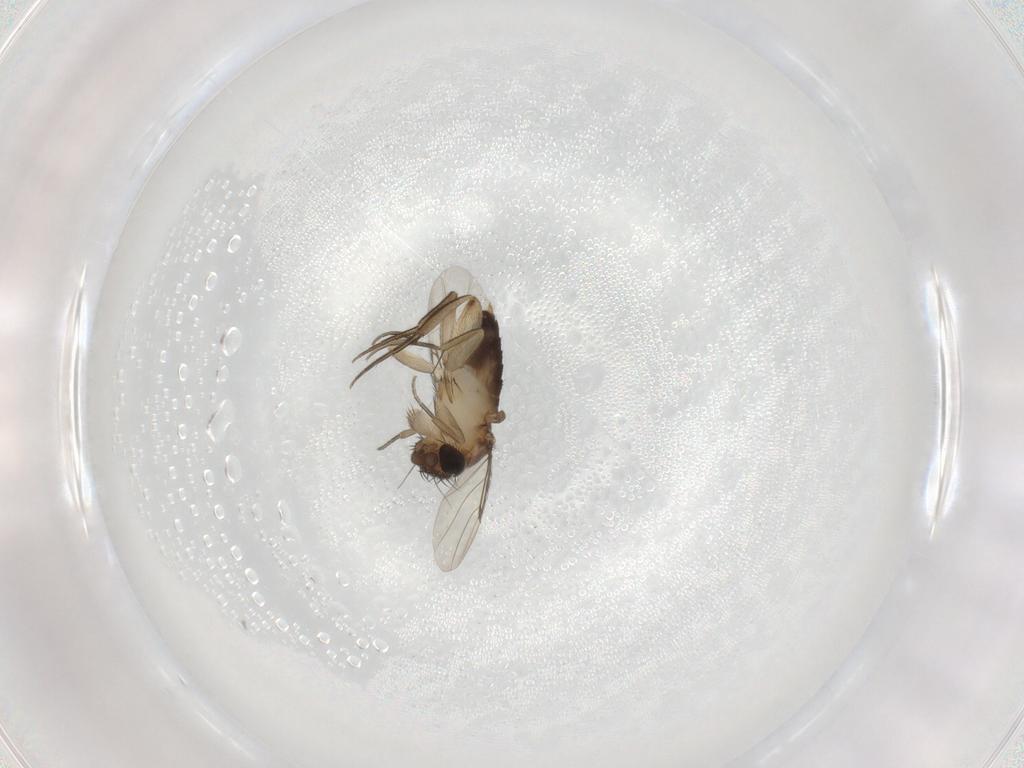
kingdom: Animalia
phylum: Arthropoda
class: Insecta
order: Diptera
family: Phoridae
